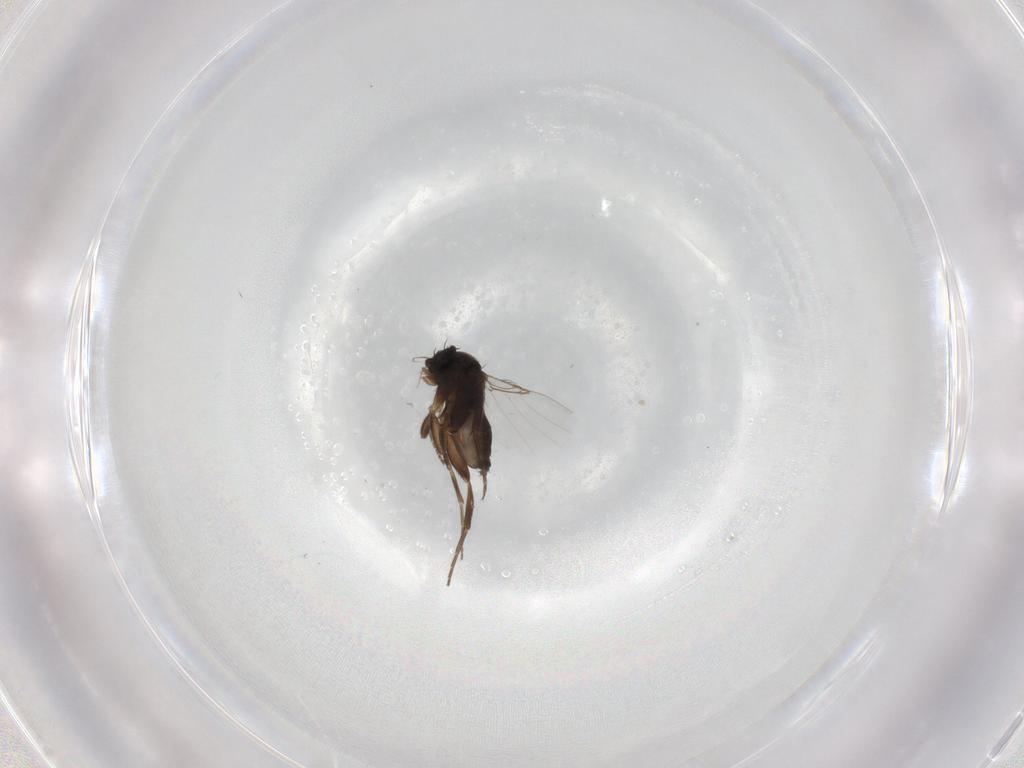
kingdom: Animalia
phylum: Arthropoda
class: Insecta
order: Diptera
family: Phoridae
